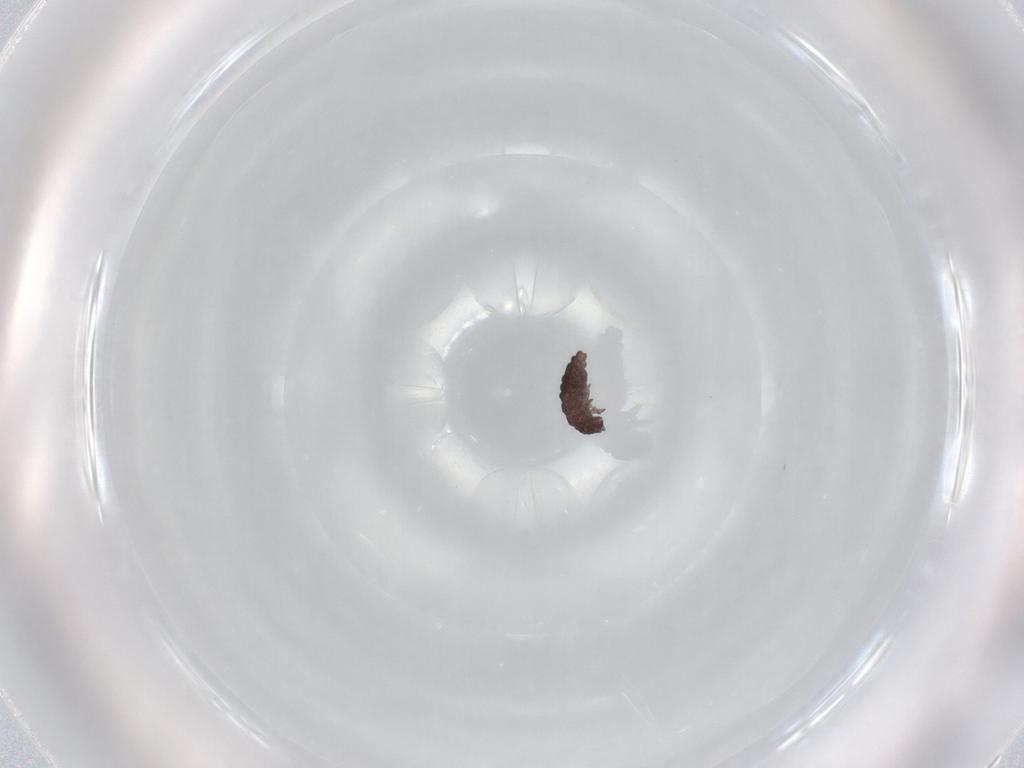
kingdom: Animalia
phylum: Arthropoda
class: Collembola
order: Poduromorpha
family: Hypogastruridae
